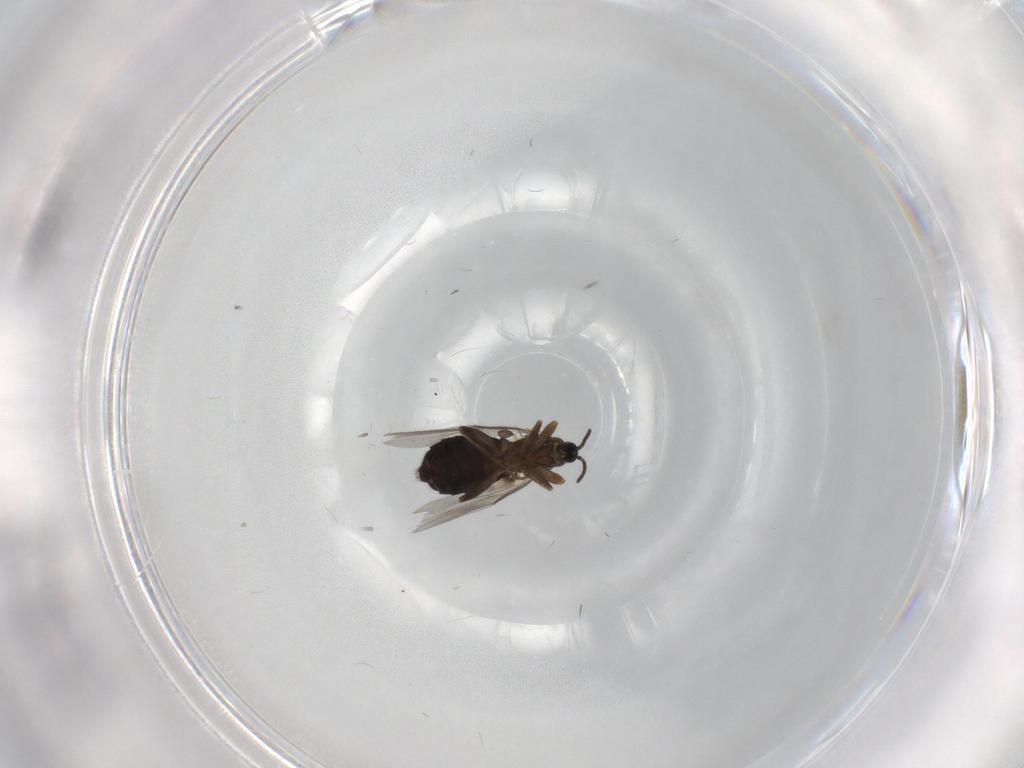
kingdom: Animalia
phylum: Arthropoda
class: Insecta
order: Diptera
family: Scatopsidae
